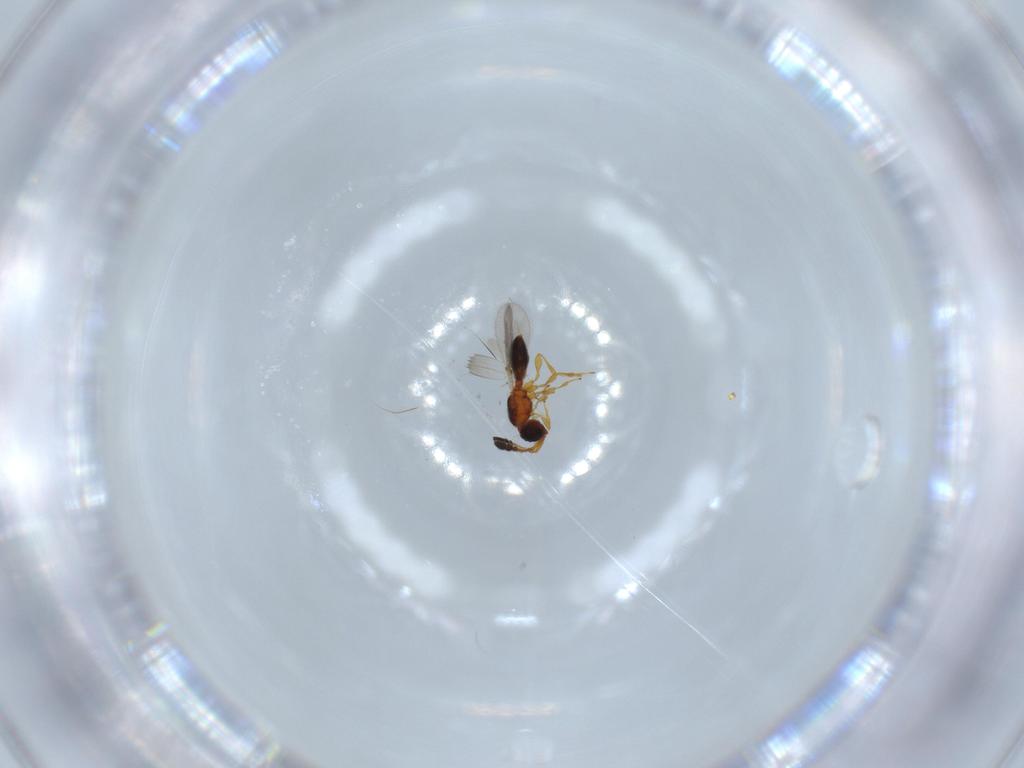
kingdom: Animalia
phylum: Arthropoda
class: Insecta
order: Hymenoptera
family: Diapriidae
